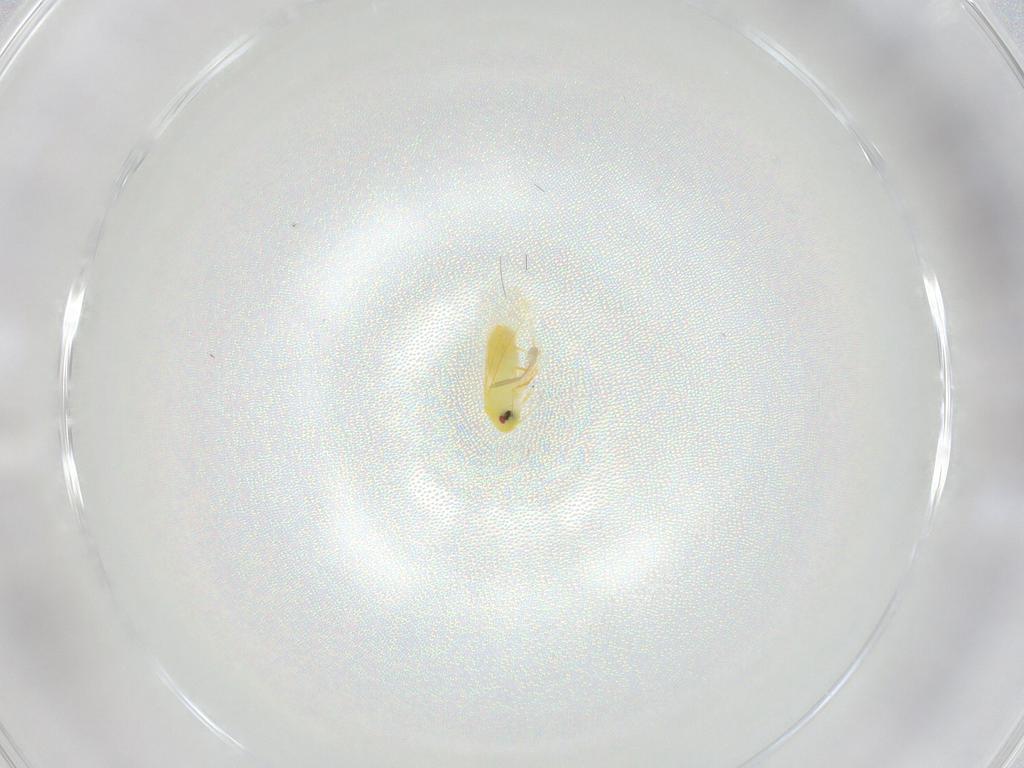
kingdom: Animalia
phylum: Arthropoda
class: Insecta
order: Hemiptera
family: Aleyrodidae
